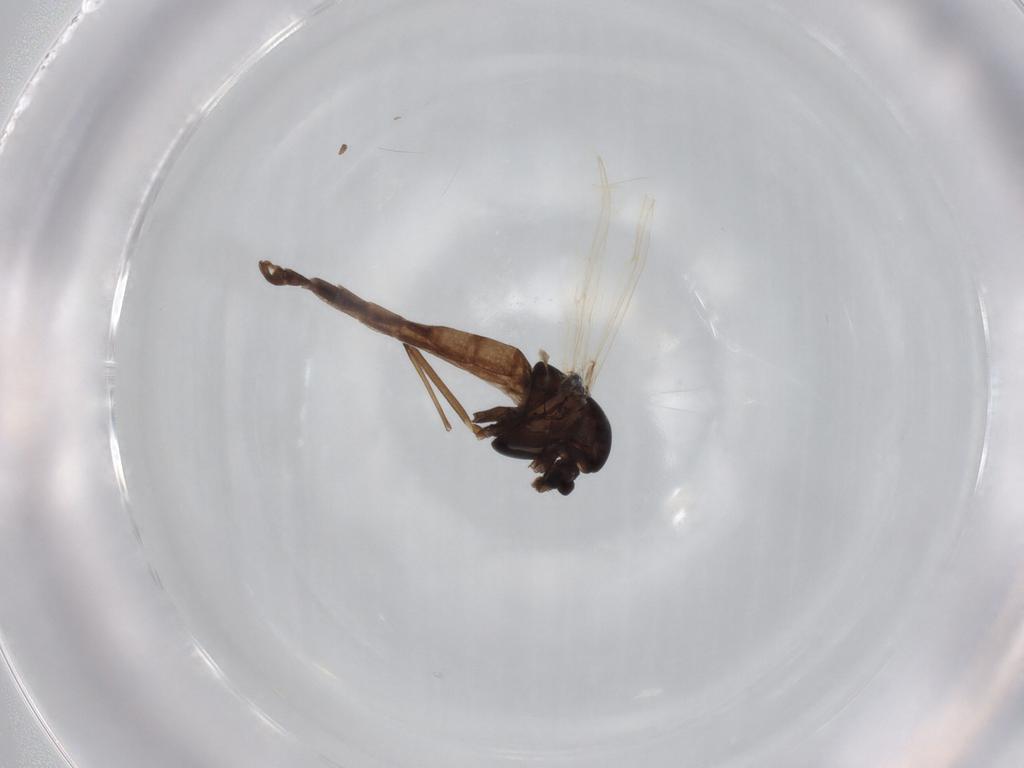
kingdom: Animalia
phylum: Arthropoda
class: Insecta
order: Diptera
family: Chironomidae
